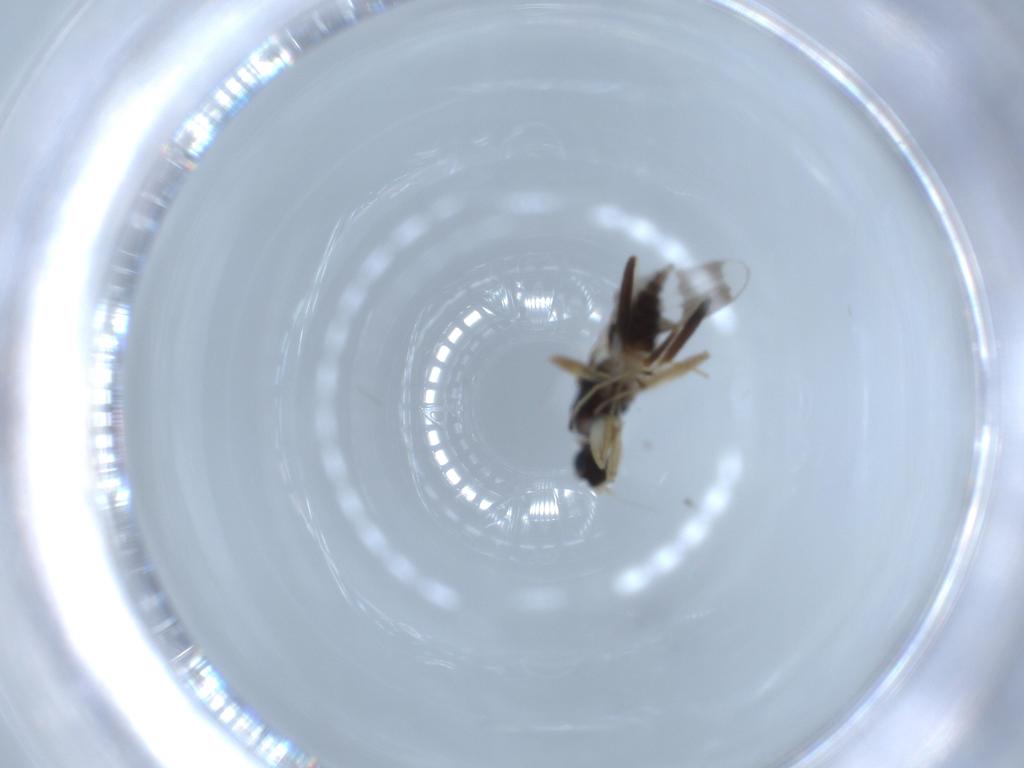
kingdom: Animalia
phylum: Arthropoda
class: Insecta
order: Diptera
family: Hybotidae
